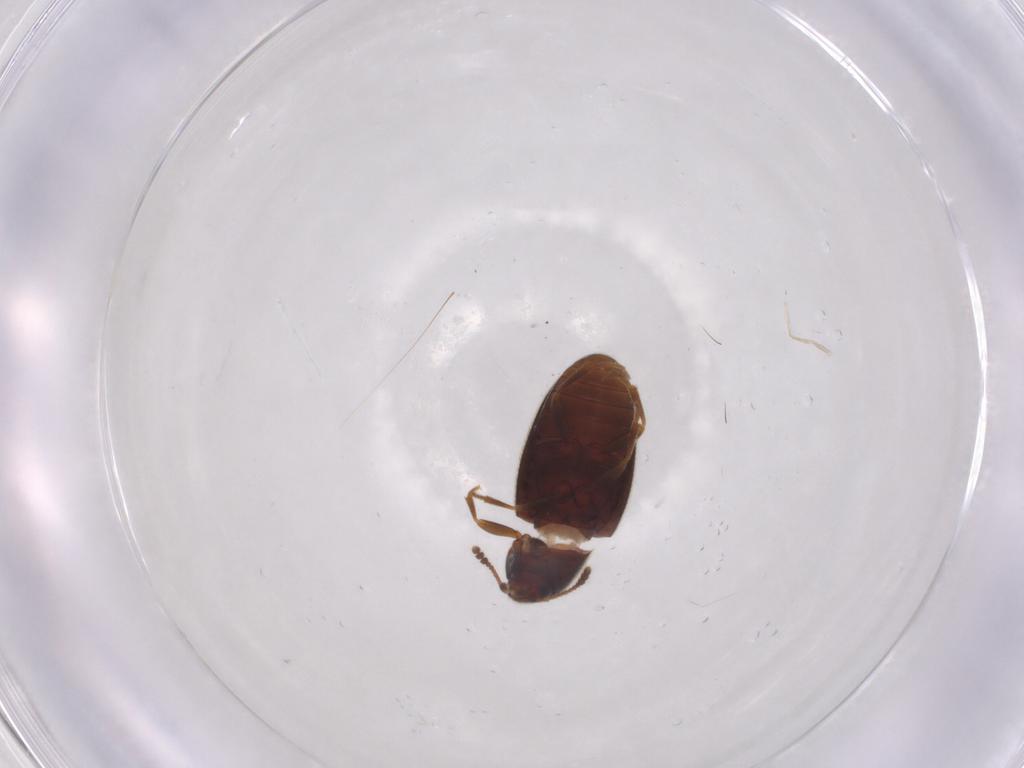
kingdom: Animalia
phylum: Arthropoda
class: Insecta
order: Coleoptera
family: Mycetophagidae
